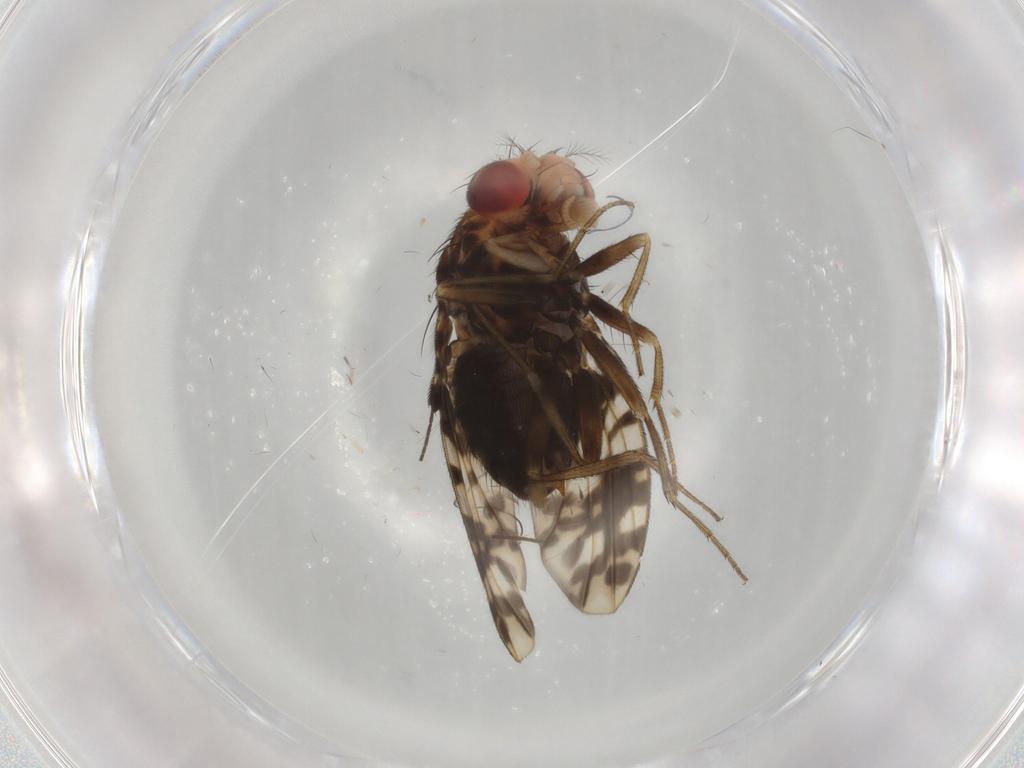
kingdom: Animalia
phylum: Arthropoda
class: Insecta
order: Diptera
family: Drosophilidae
